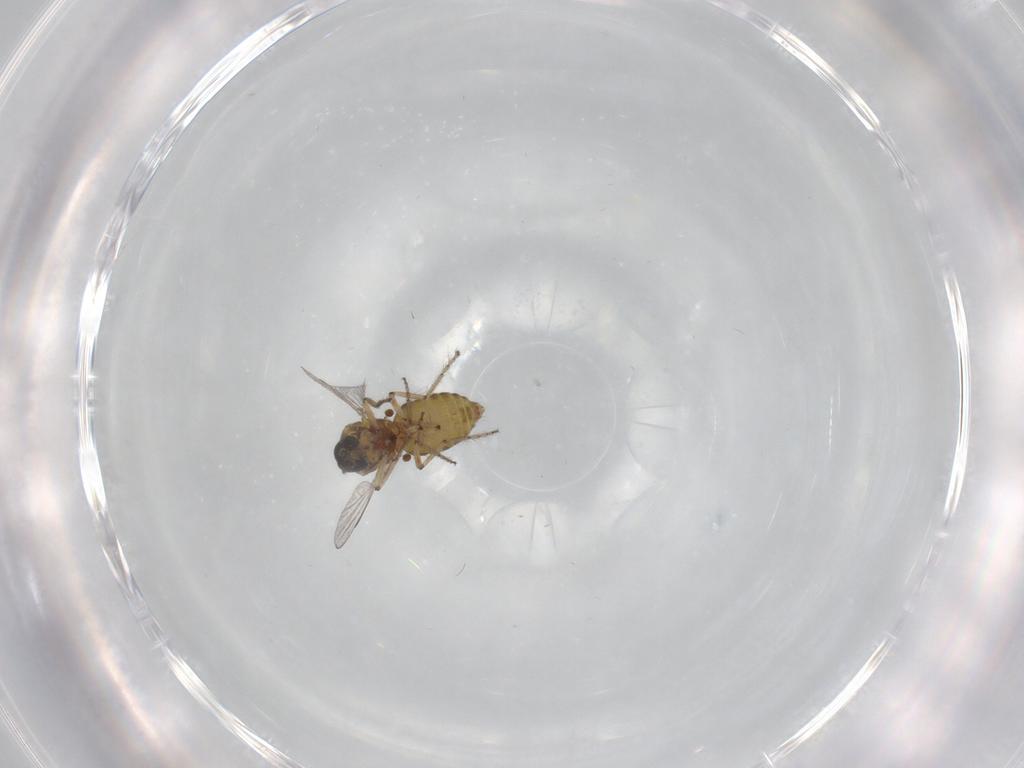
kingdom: Animalia
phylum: Arthropoda
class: Insecta
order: Diptera
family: Ceratopogonidae
